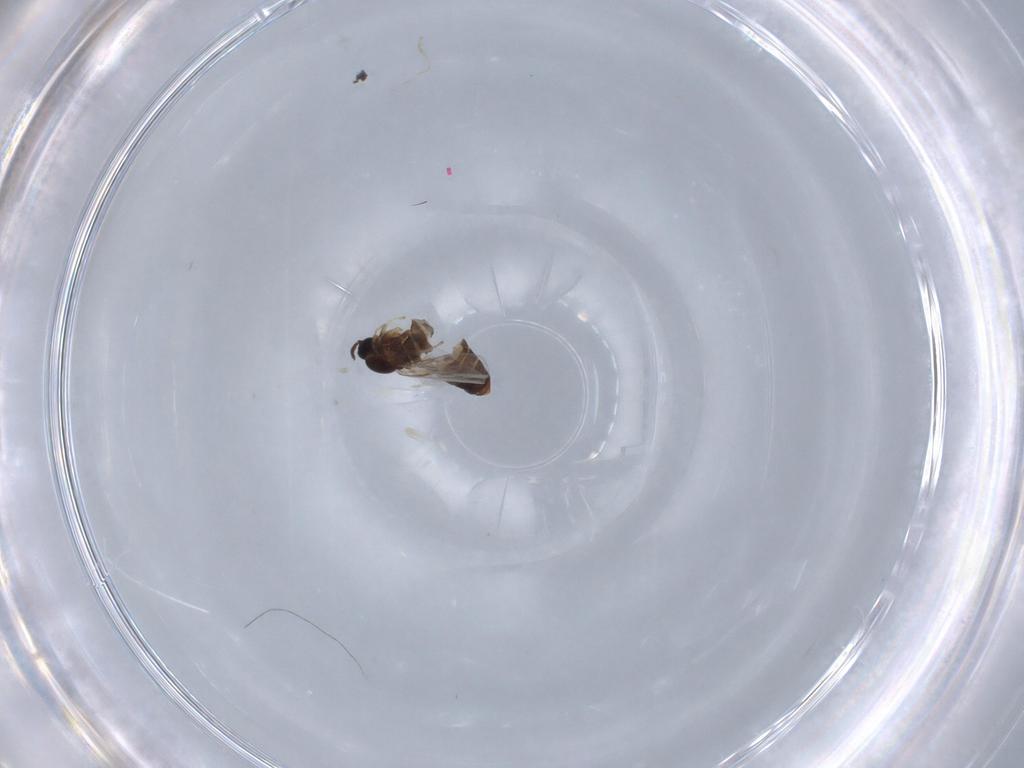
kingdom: Animalia
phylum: Arthropoda
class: Insecta
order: Diptera
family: Scatopsidae
